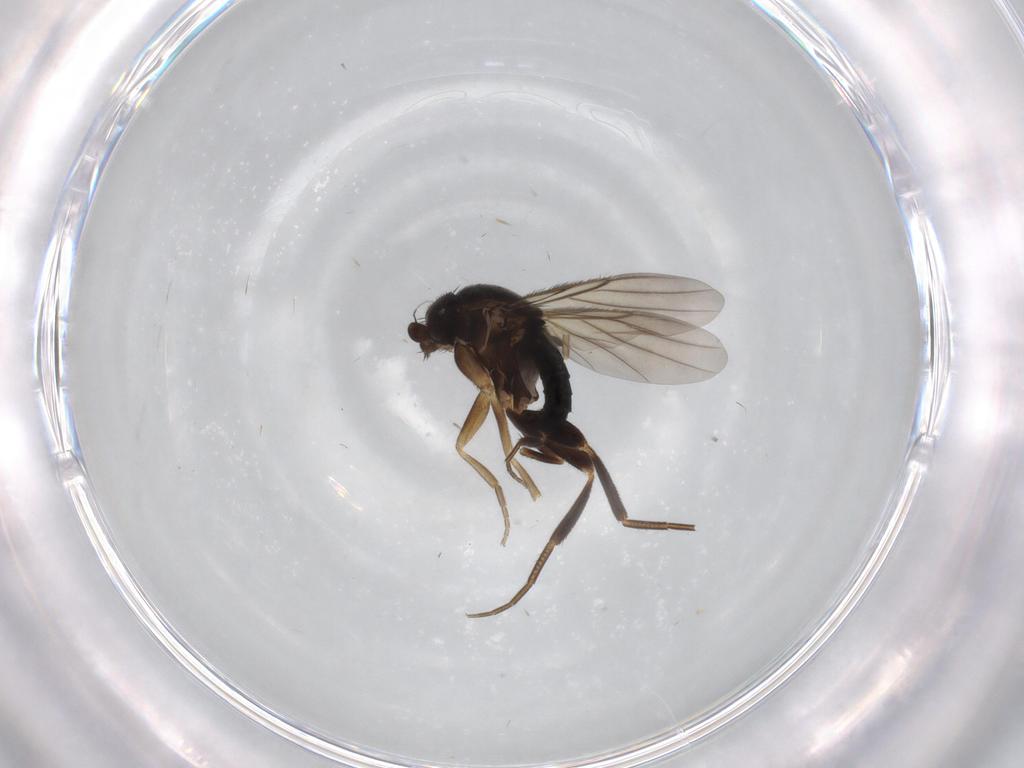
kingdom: Animalia
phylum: Arthropoda
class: Insecta
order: Diptera
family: Phoridae
